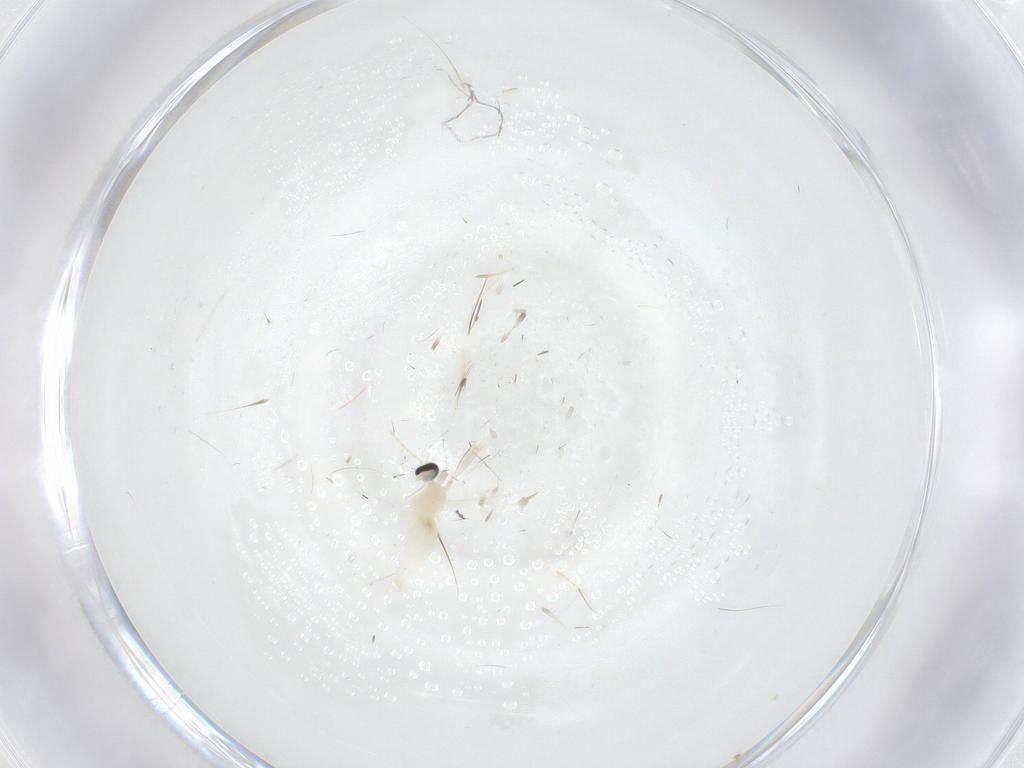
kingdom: Animalia
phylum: Arthropoda
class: Insecta
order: Diptera
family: Cecidomyiidae
